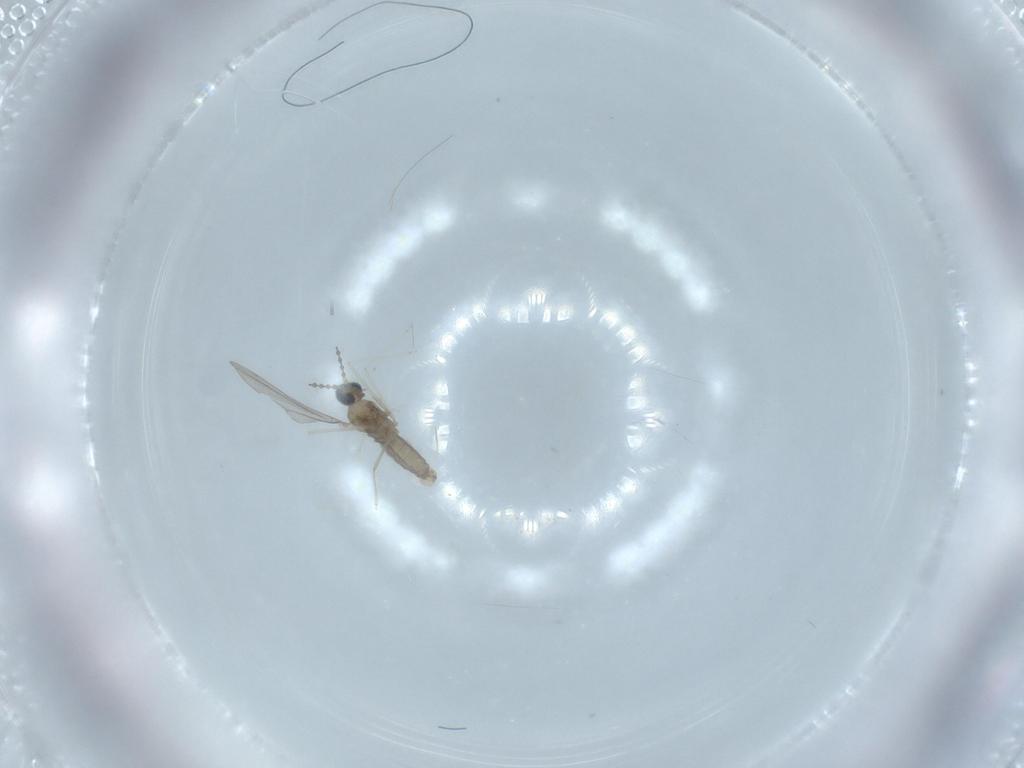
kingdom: Animalia
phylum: Arthropoda
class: Insecta
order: Diptera
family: Cecidomyiidae
